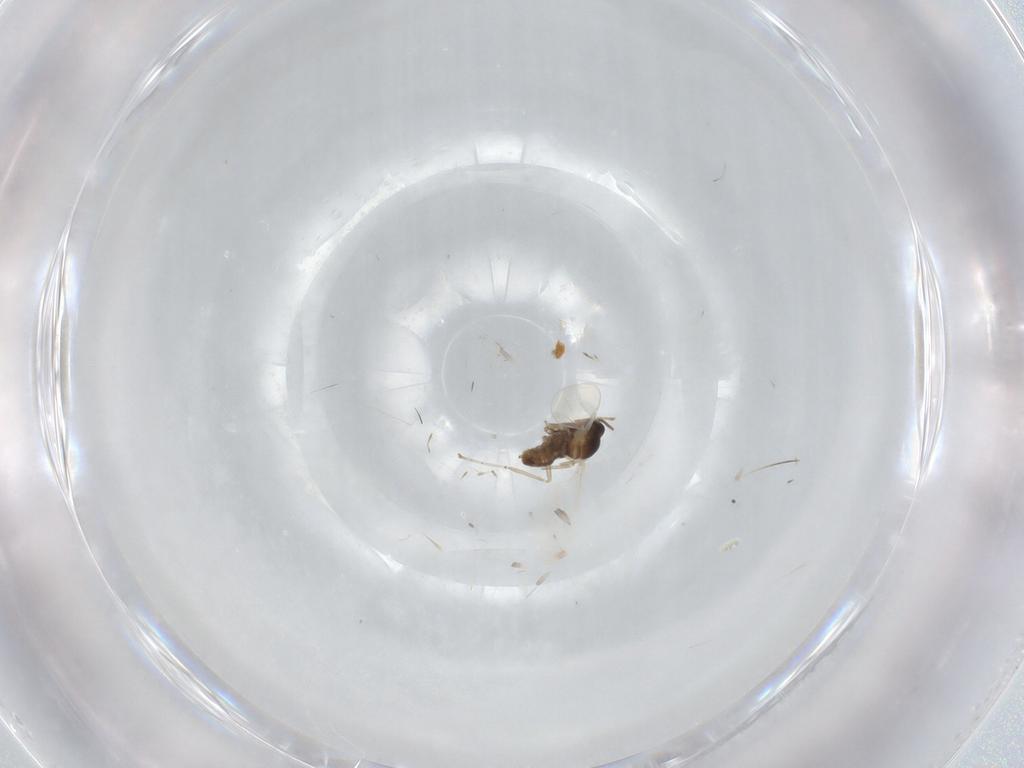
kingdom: Animalia
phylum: Arthropoda
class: Insecta
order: Diptera
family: Cecidomyiidae
